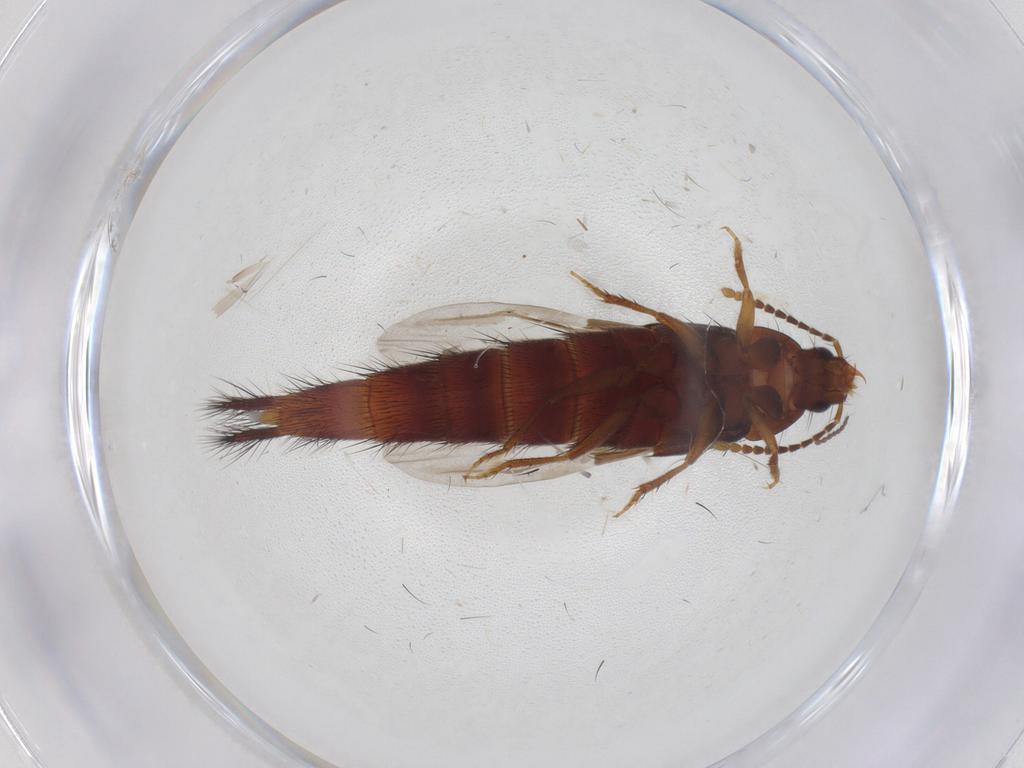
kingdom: Animalia
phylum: Arthropoda
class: Insecta
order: Coleoptera
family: Staphylinidae
